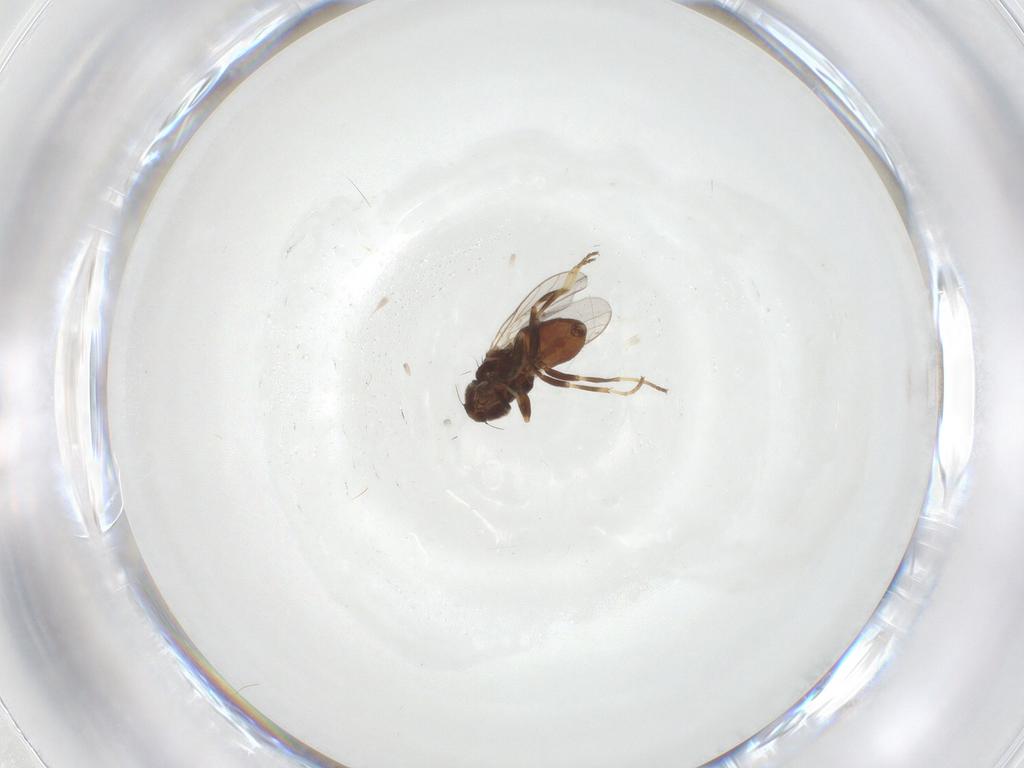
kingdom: Animalia
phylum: Arthropoda
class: Insecta
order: Diptera
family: Chloropidae
